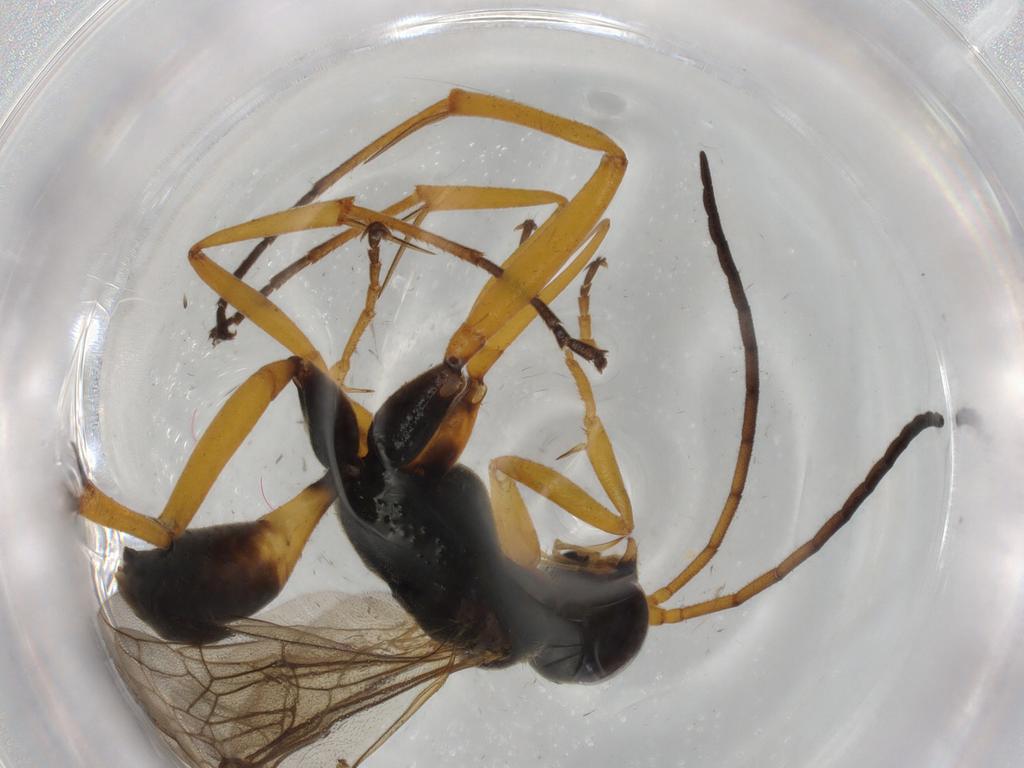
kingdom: Animalia
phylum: Arthropoda
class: Insecta
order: Hymenoptera
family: Pompilidae
